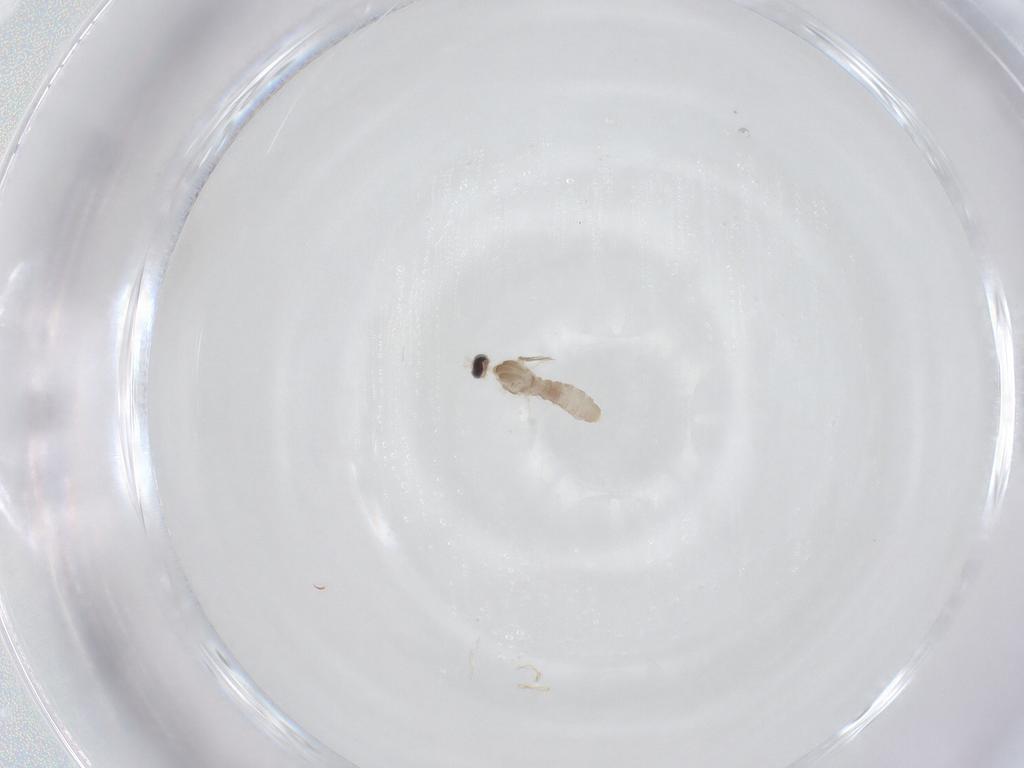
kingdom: Animalia
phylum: Arthropoda
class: Insecta
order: Diptera
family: Cecidomyiidae
